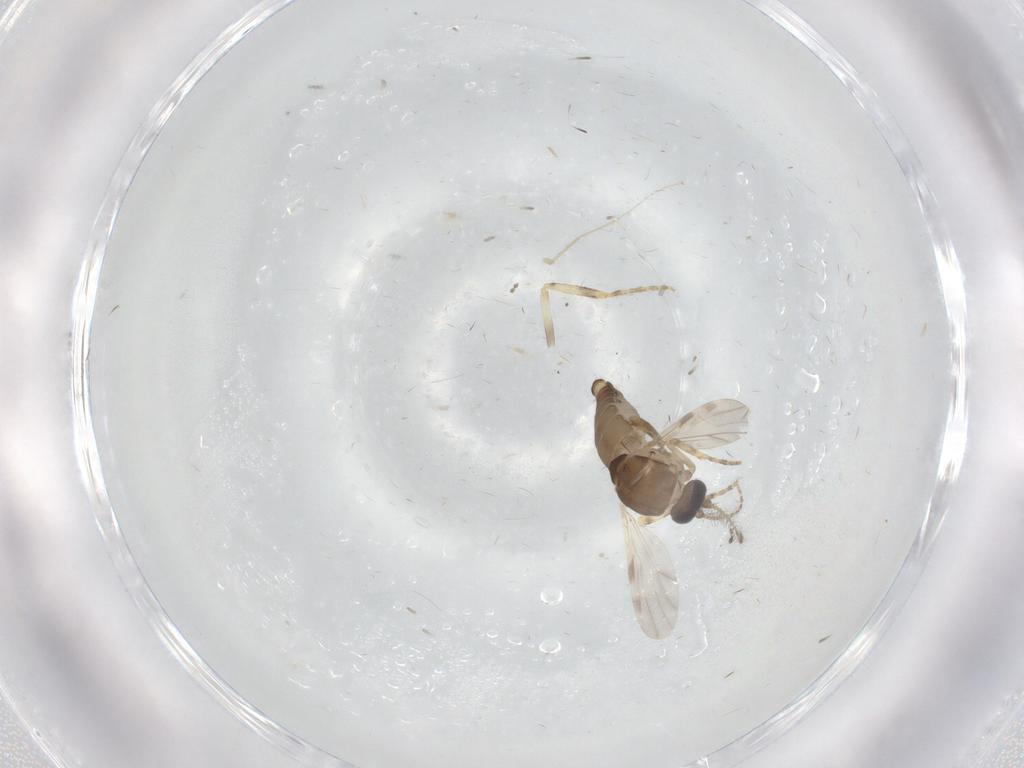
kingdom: Animalia
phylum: Arthropoda
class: Insecta
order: Diptera
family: Ceratopogonidae
